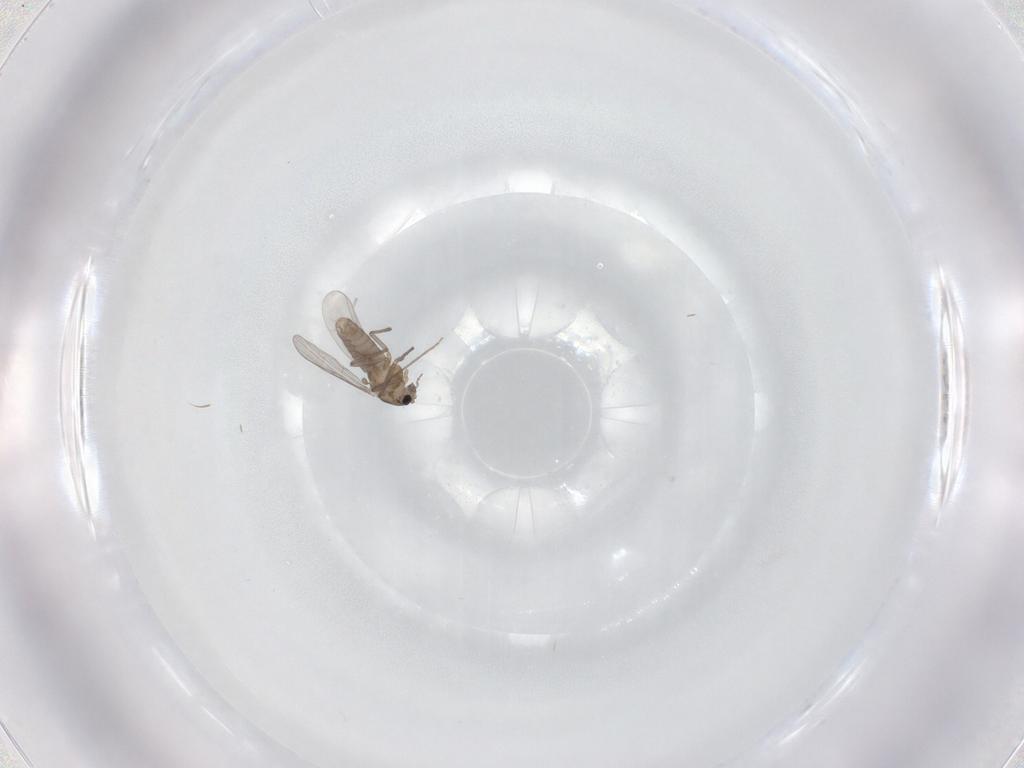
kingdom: Animalia
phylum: Arthropoda
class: Insecta
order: Diptera
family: Chironomidae
